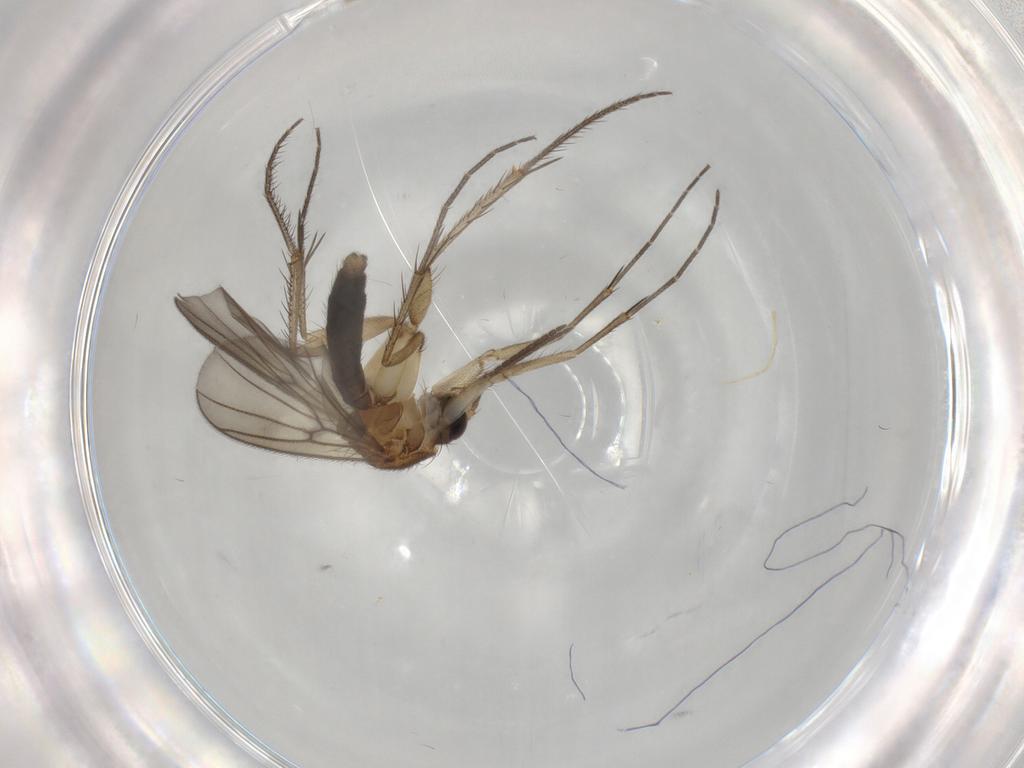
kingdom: Animalia
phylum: Arthropoda
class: Insecta
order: Diptera
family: Mycetophilidae
